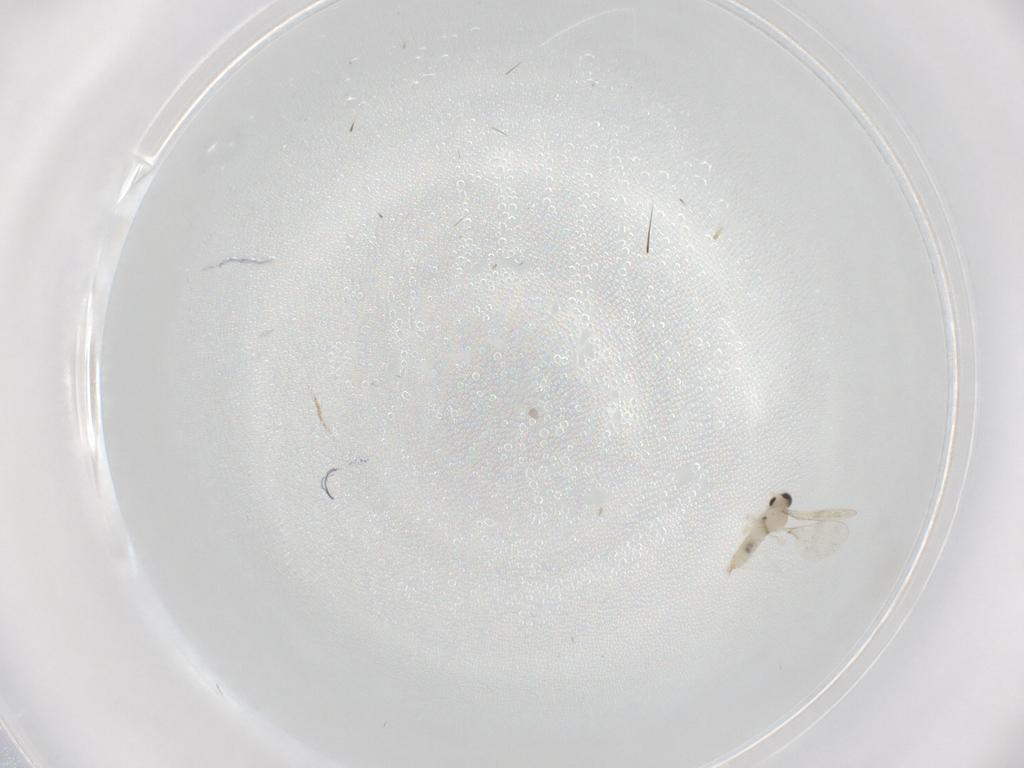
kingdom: Animalia
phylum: Arthropoda
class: Insecta
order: Diptera
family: Cecidomyiidae
